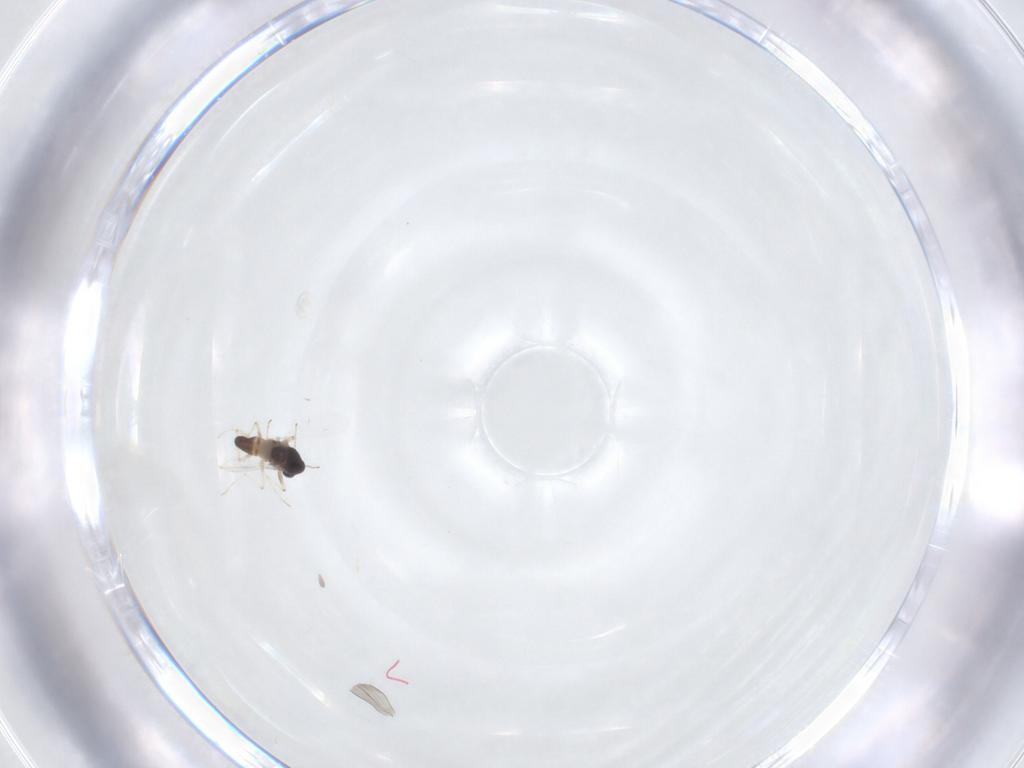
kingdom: Animalia
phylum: Arthropoda
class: Insecta
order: Diptera
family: Chironomidae
